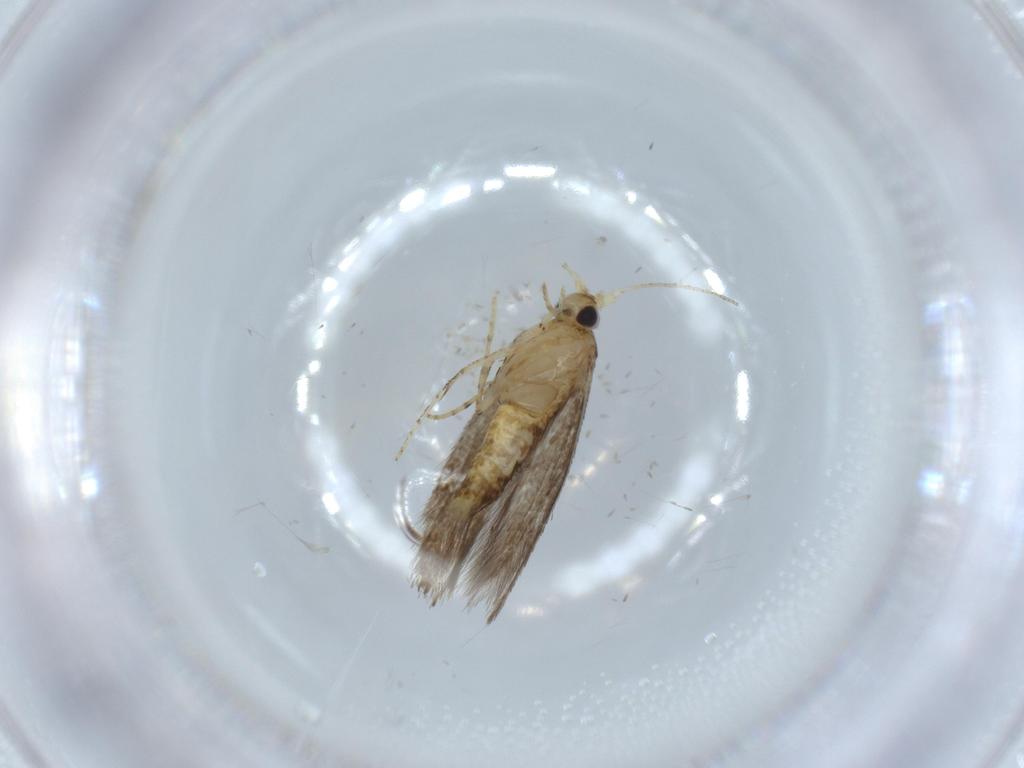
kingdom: Animalia
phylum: Arthropoda
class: Insecta
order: Lepidoptera
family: Argyresthiidae
